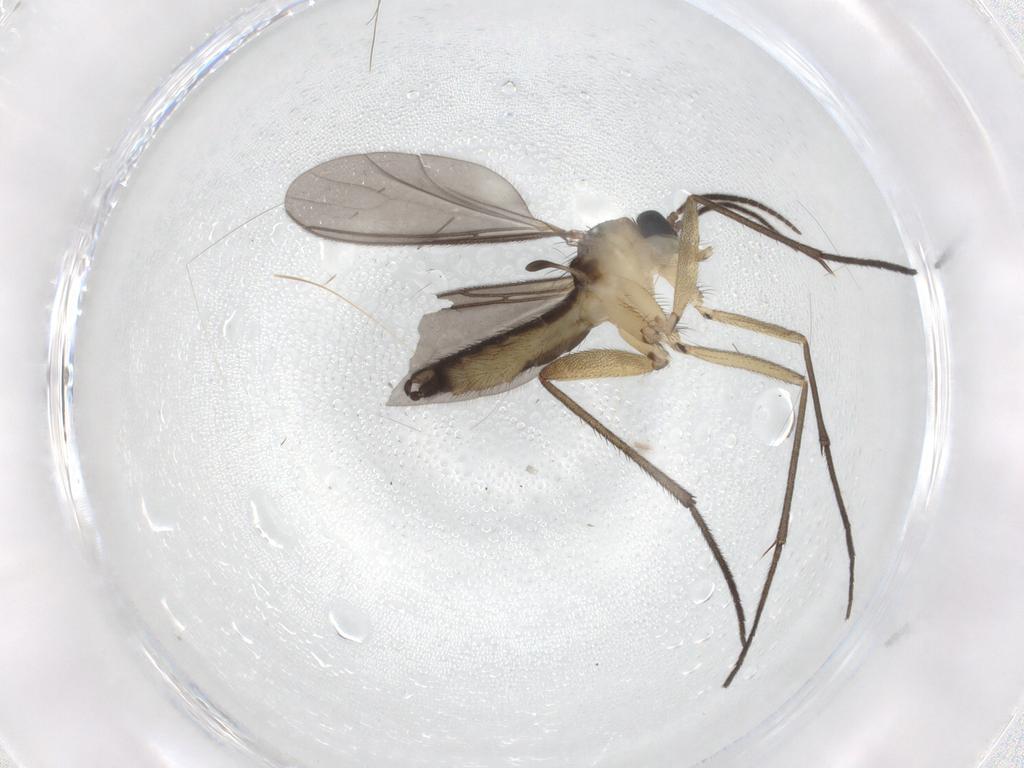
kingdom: Animalia
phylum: Arthropoda
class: Insecta
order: Diptera
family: Sciaridae
